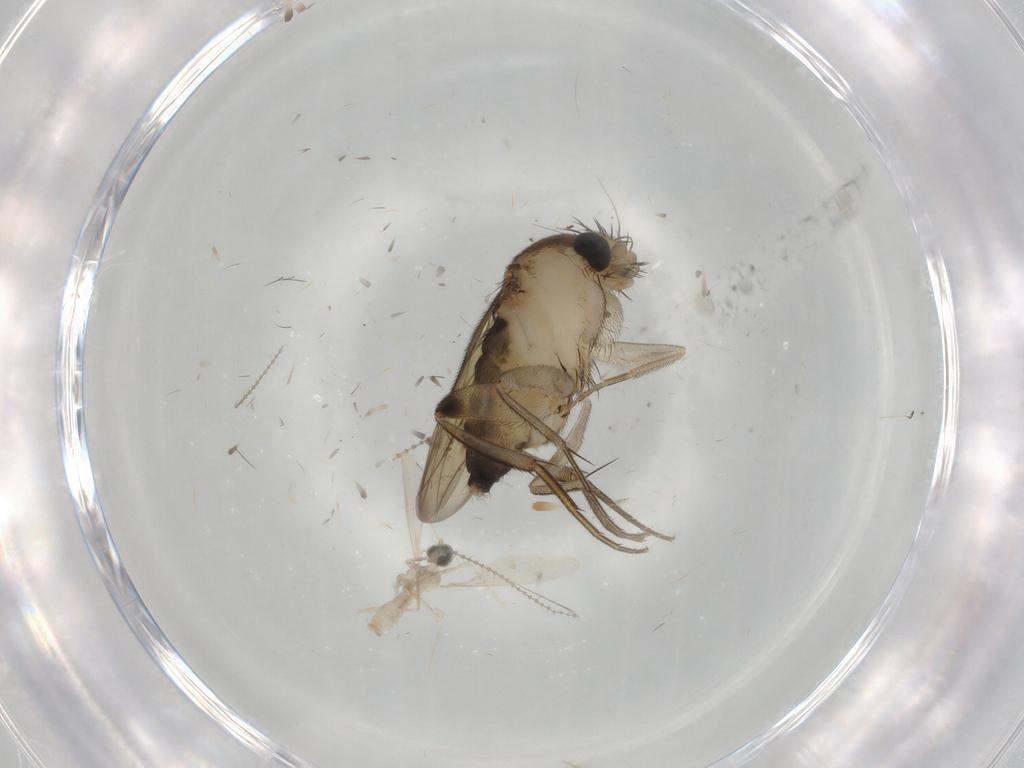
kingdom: Animalia
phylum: Arthropoda
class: Insecta
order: Diptera
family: Phoridae
